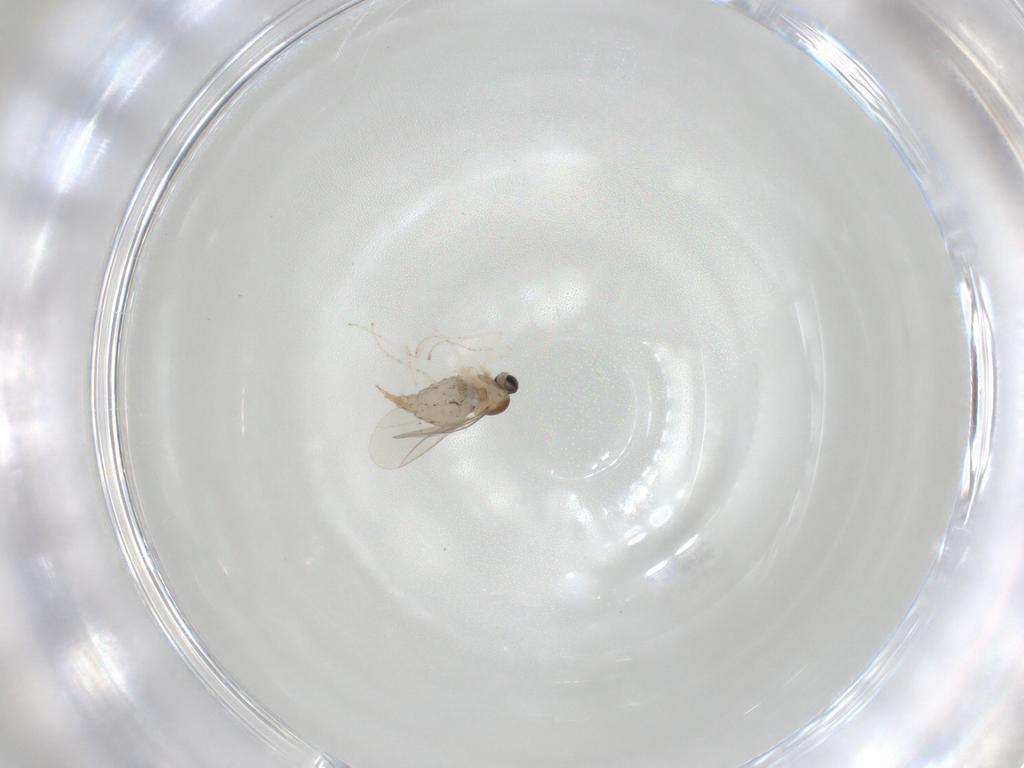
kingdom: Animalia
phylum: Arthropoda
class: Insecta
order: Diptera
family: Cecidomyiidae
